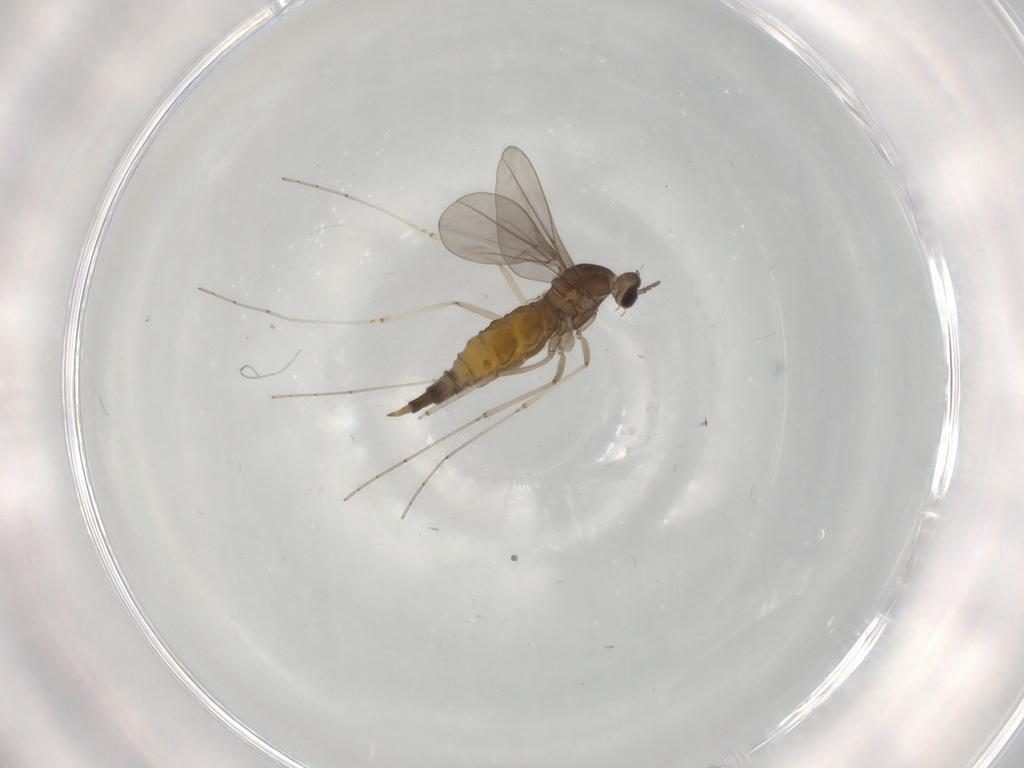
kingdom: Animalia
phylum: Arthropoda
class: Insecta
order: Diptera
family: Cecidomyiidae
